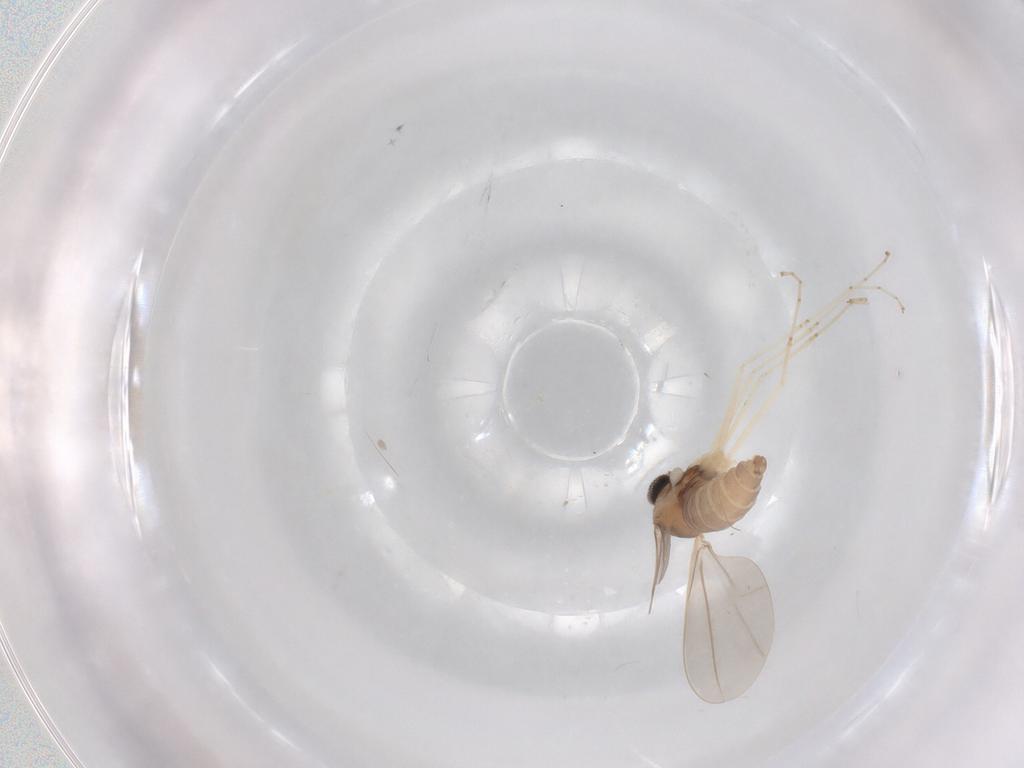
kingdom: Animalia
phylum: Arthropoda
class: Insecta
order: Diptera
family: Cecidomyiidae
